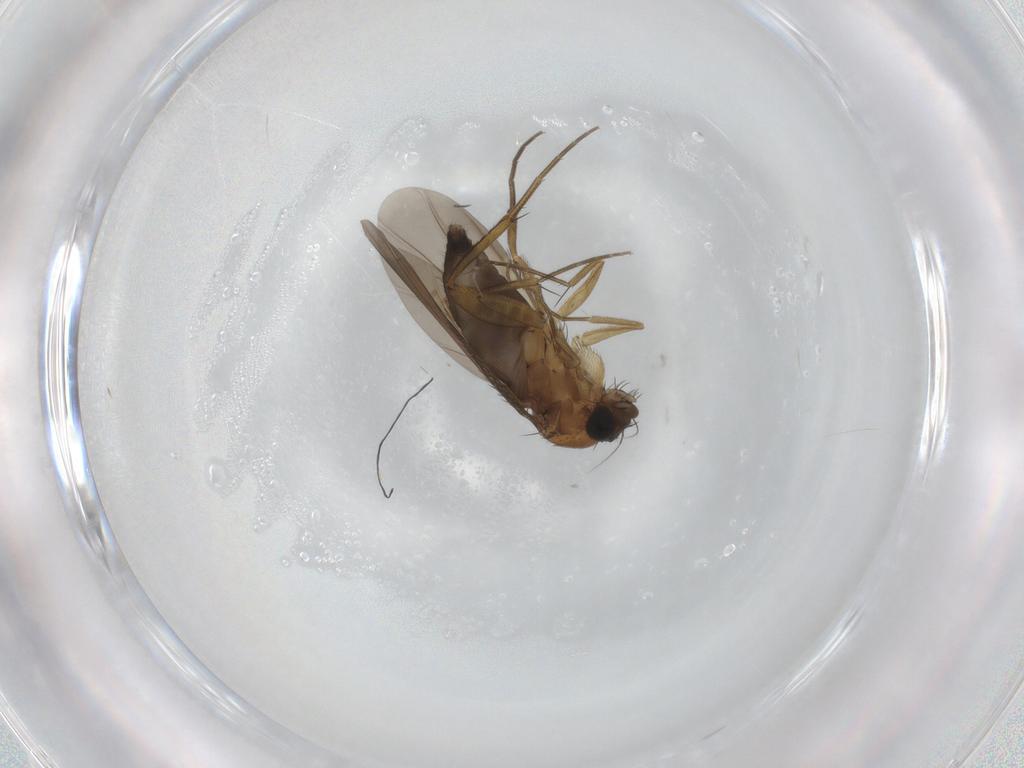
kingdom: Animalia
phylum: Arthropoda
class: Insecta
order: Diptera
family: Phoridae
